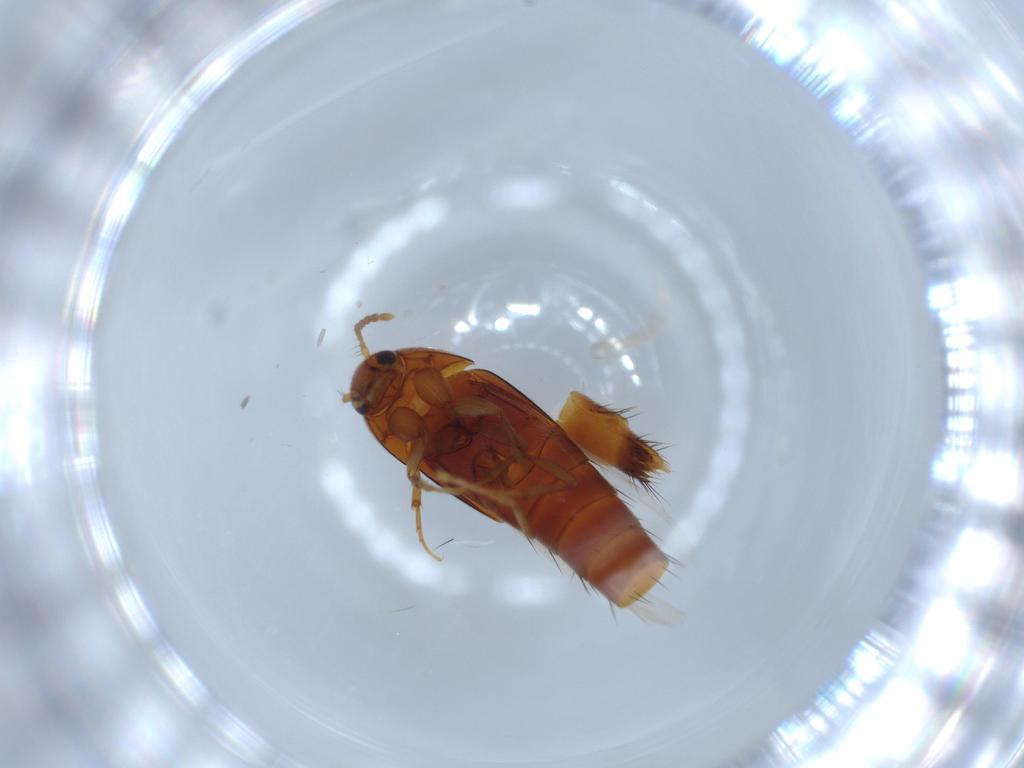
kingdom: Animalia
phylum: Arthropoda
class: Insecta
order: Coleoptera
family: Staphylinidae
